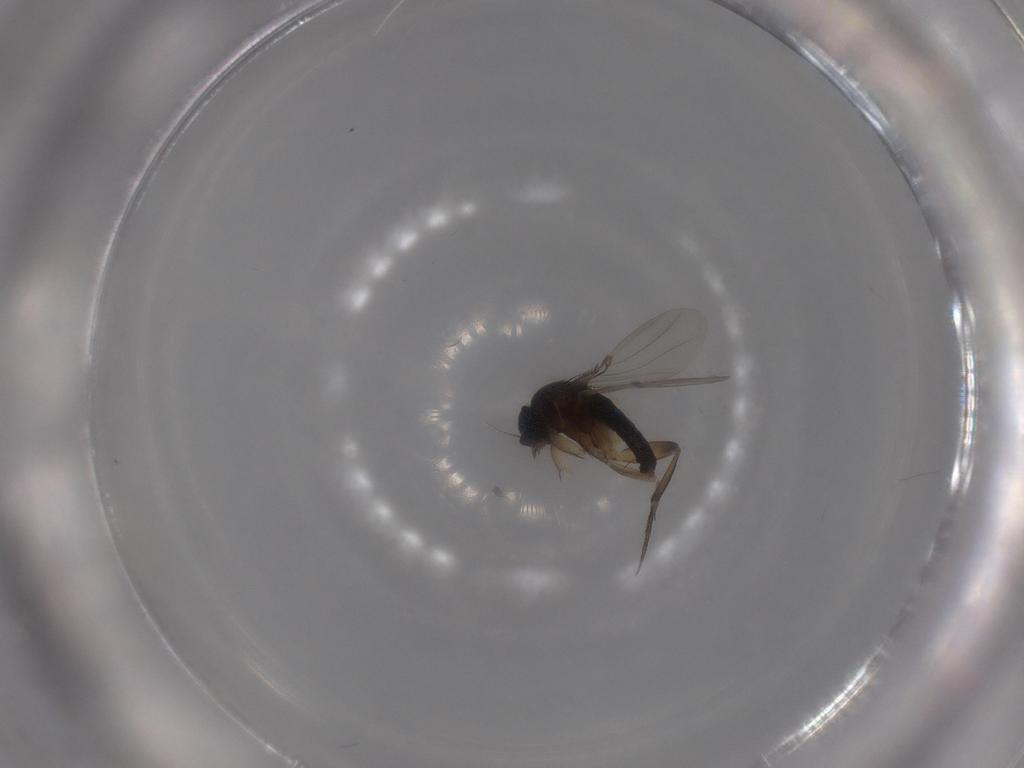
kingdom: Animalia
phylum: Arthropoda
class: Insecta
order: Diptera
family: Phoridae
